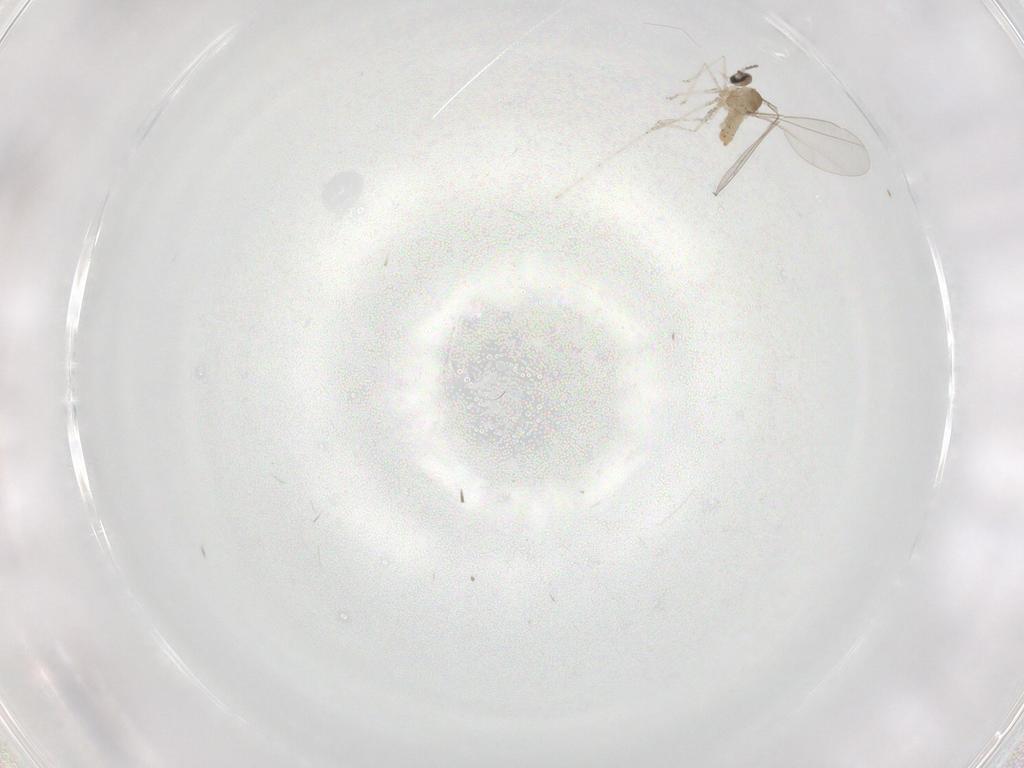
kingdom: Animalia
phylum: Arthropoda
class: Insecta
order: Diptera
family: Cecidomyiidae
